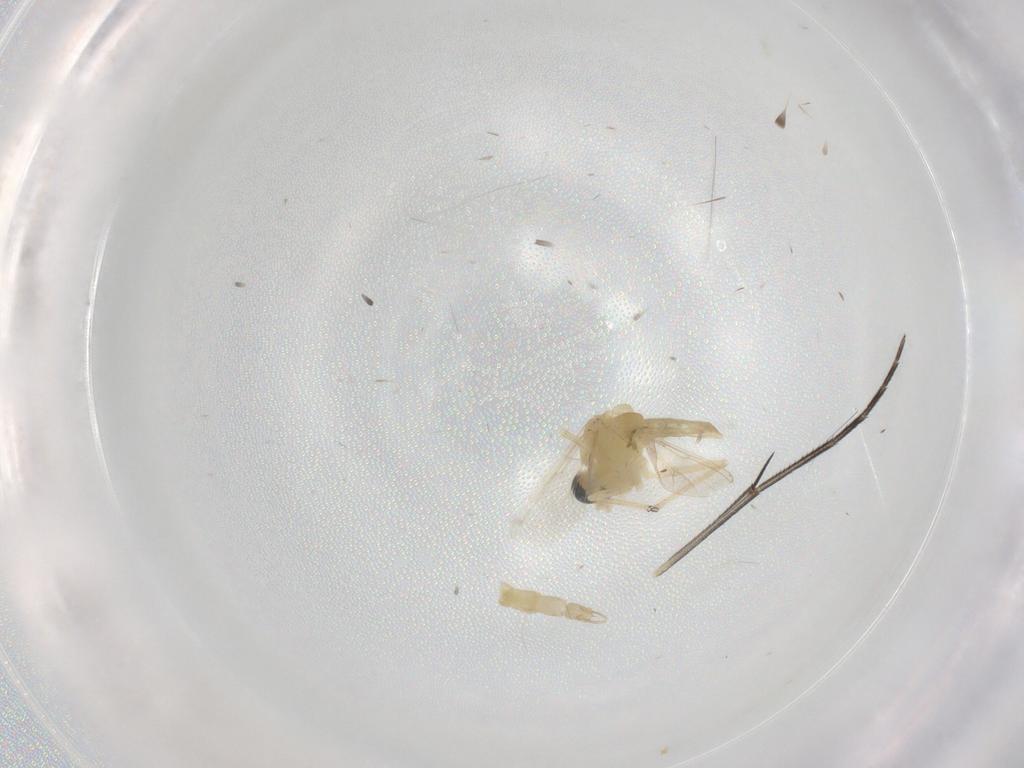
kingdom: Animalia
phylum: Arthropoda
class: Insecta
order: Diptera
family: Chironomidae
